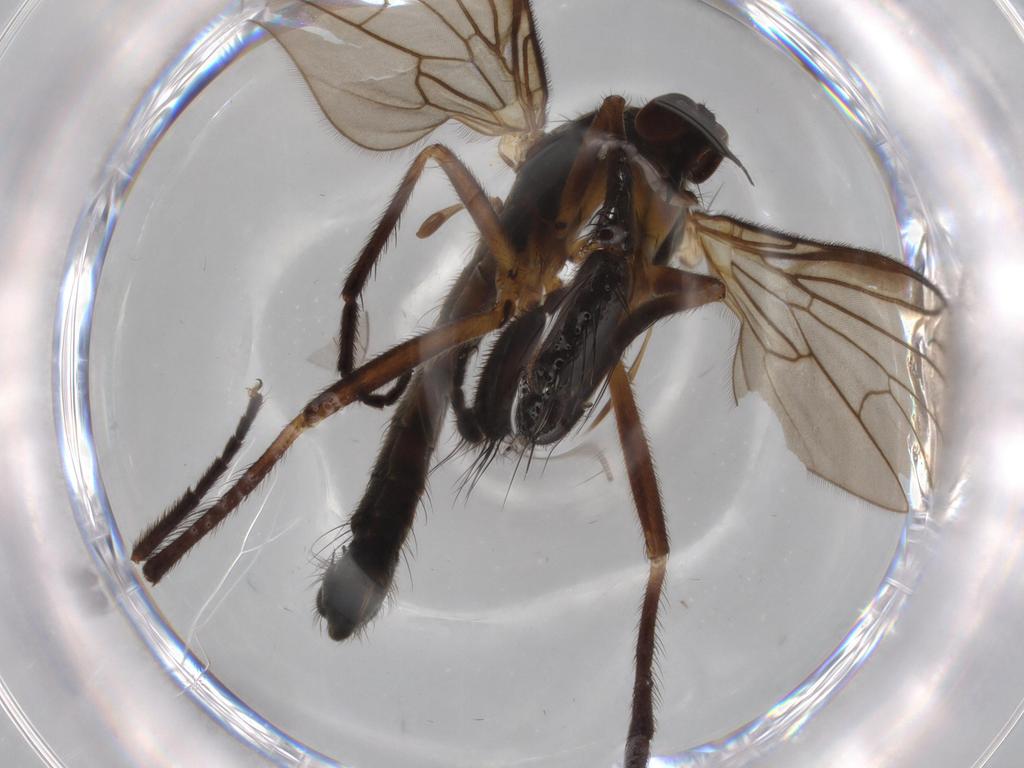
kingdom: Animalia
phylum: Arthropoda
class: Insecta
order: Diptera
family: Empididae
